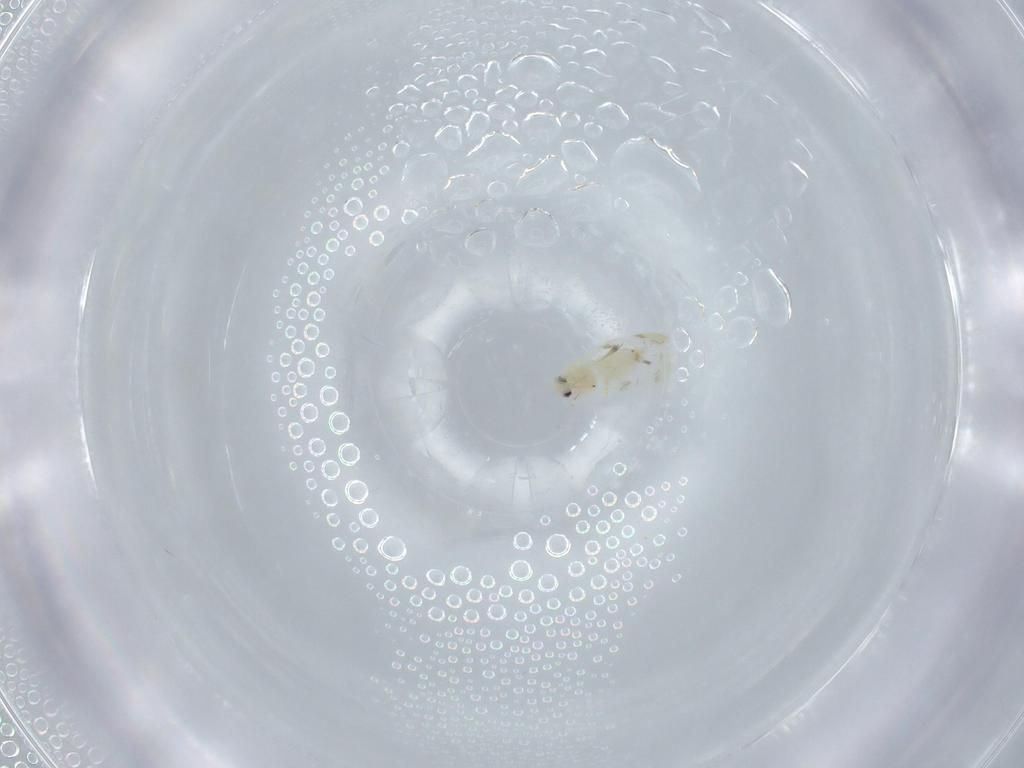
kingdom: Animalia
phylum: Arthropoda
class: Insecta
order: Hemiptera
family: Aleyrodidae
